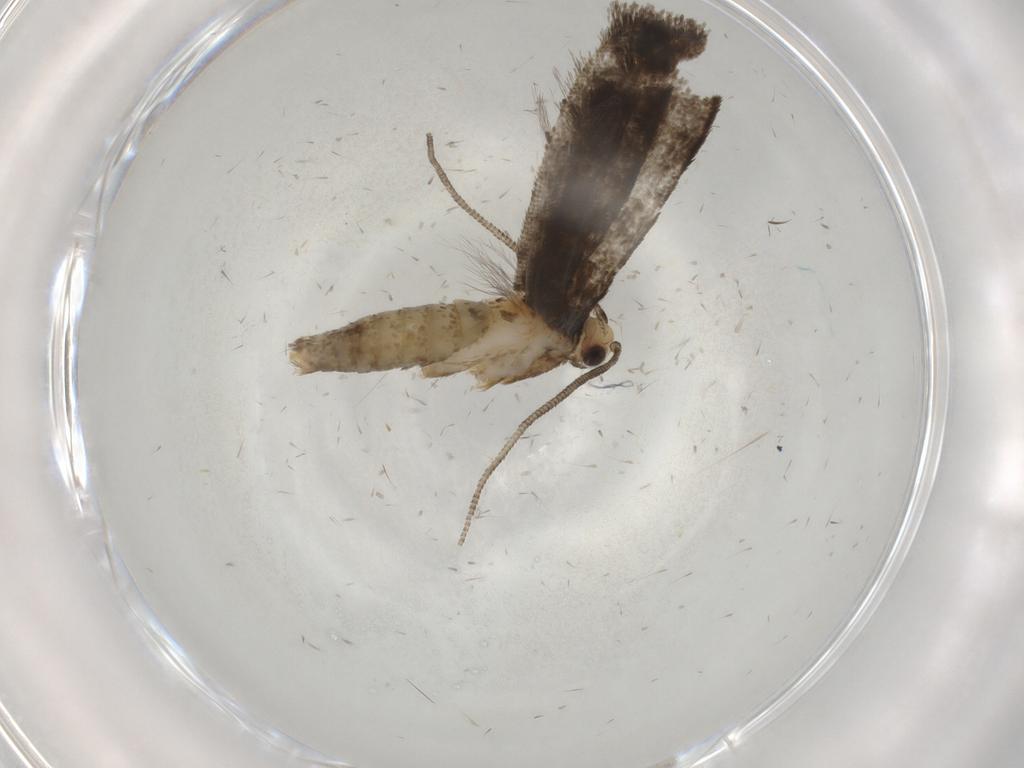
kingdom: Animalia
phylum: Arthropoda
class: Insecta
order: Lepidoptera
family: Tineidae
